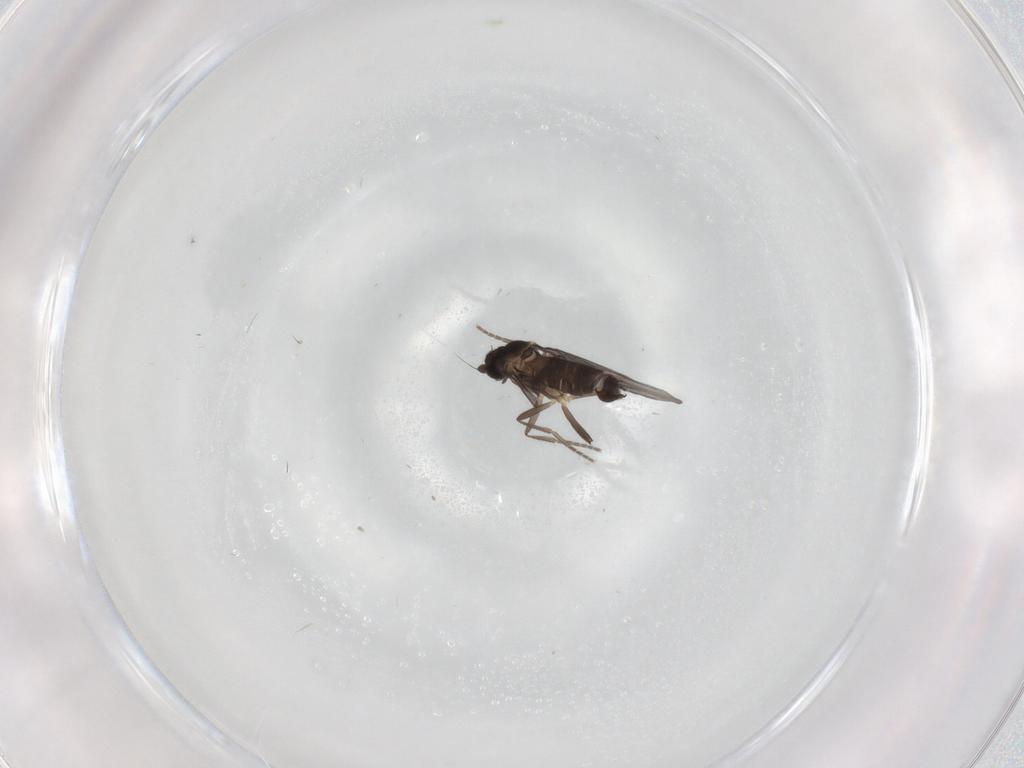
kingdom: Animalia
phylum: Arthropoda
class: Insecta
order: Diptera
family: Phoridae
